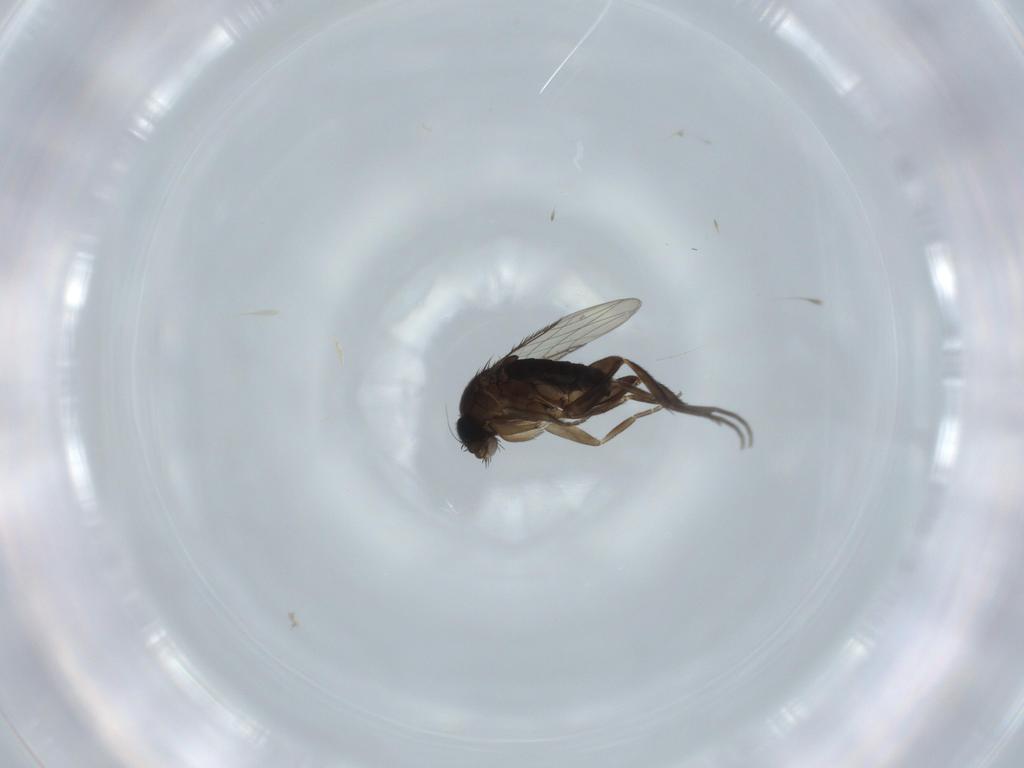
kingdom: Animalia
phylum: Arthropoda
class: Insecta
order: Diptera
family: Phoridae
